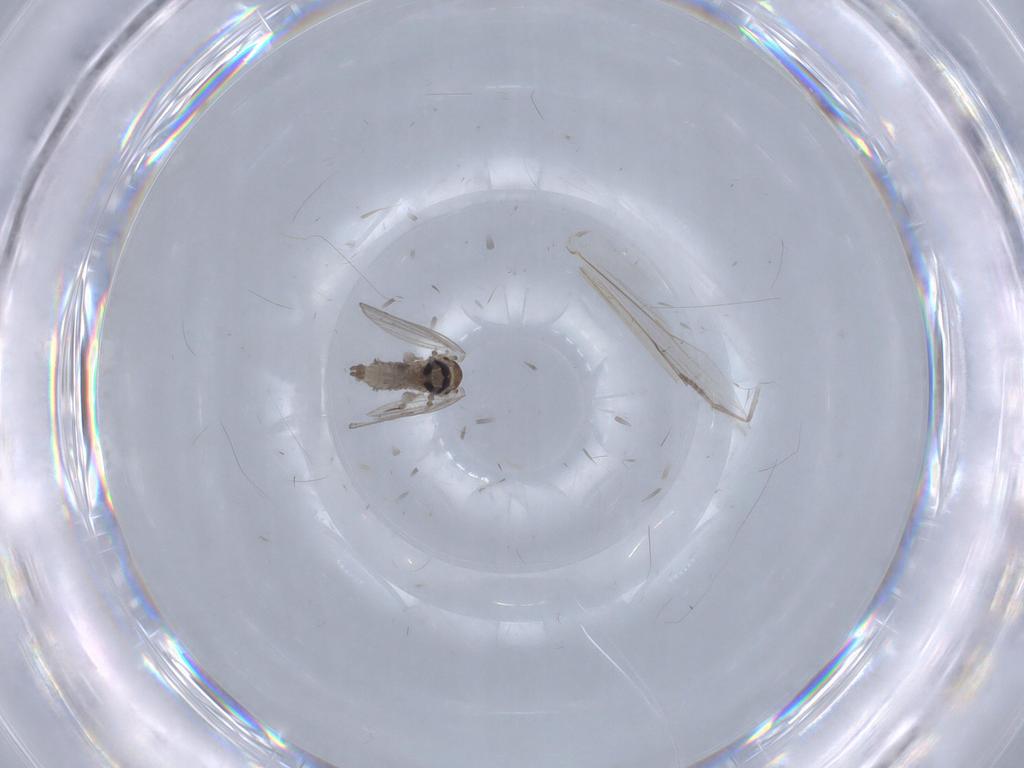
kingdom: Animalia
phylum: Arthropoda
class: Insecta
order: Diptera
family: Psychodidae
